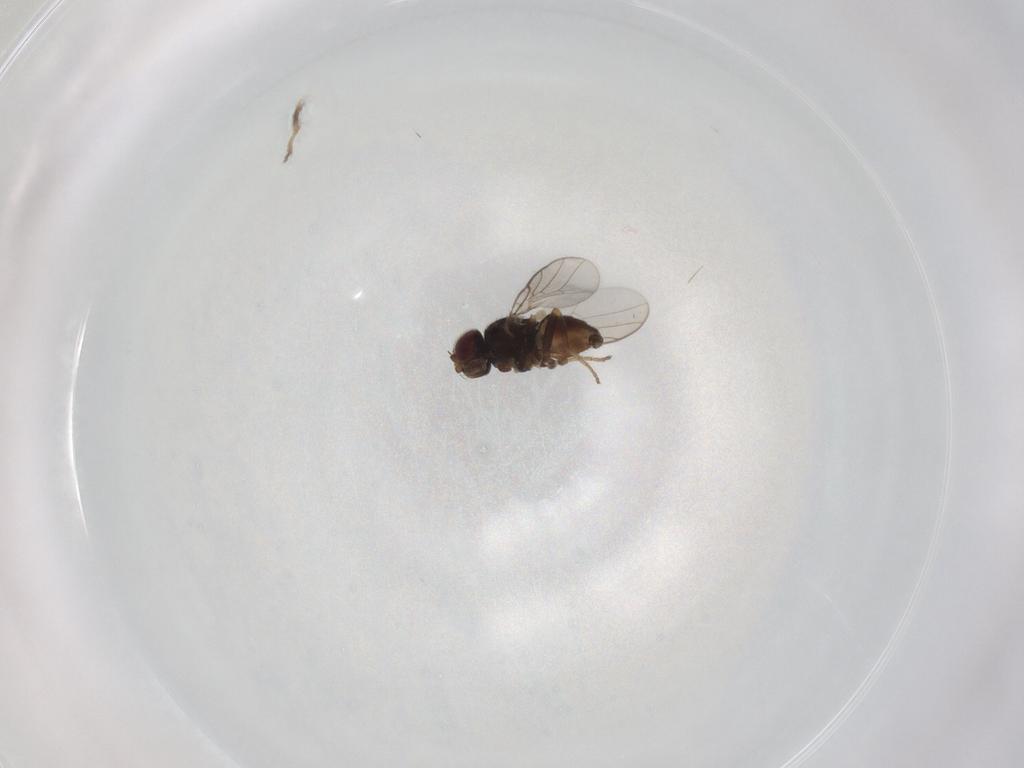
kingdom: Animalia
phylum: Arthropoda
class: Insecta
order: Diptera
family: Chloropidae
